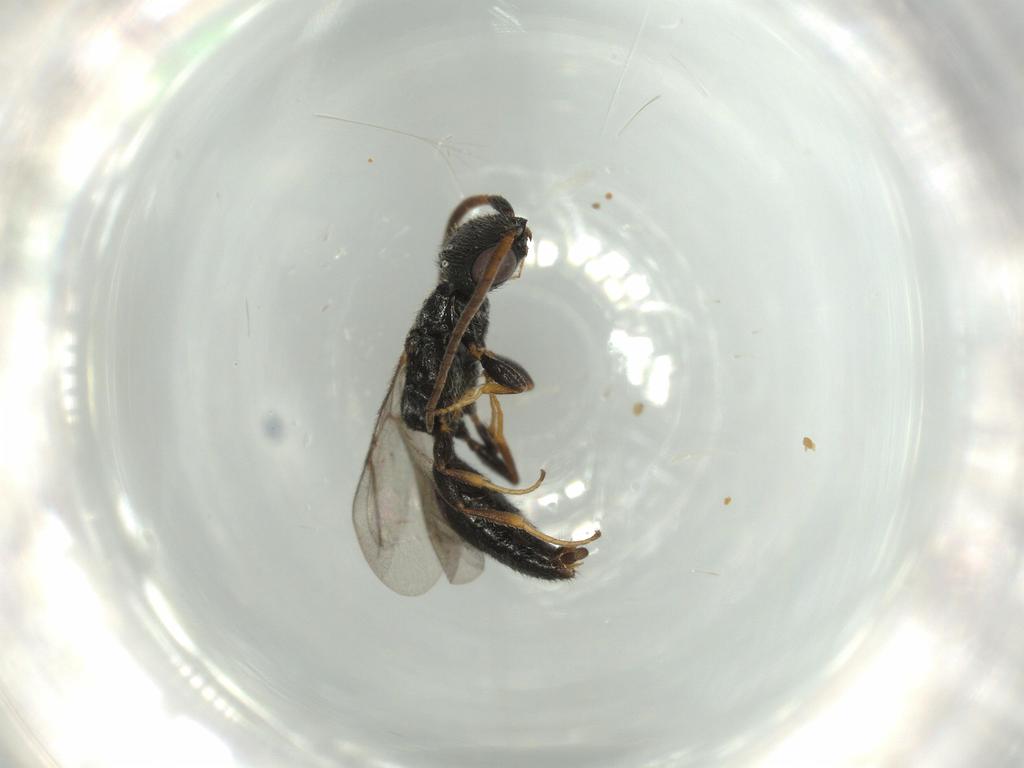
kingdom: Animalia
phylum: Arthropoda
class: Insecta
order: Hymenoptera
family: Bethylidae
